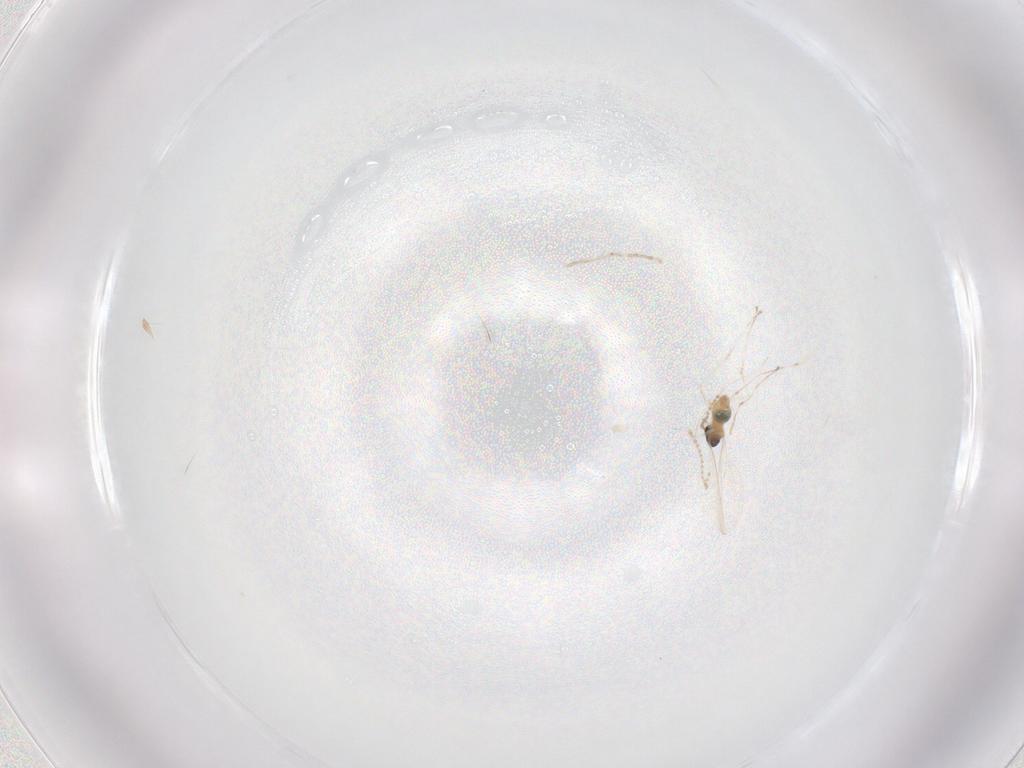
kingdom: Animalia
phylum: Arthropoda
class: Insecta
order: Diptera
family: Cecidomyiidae
